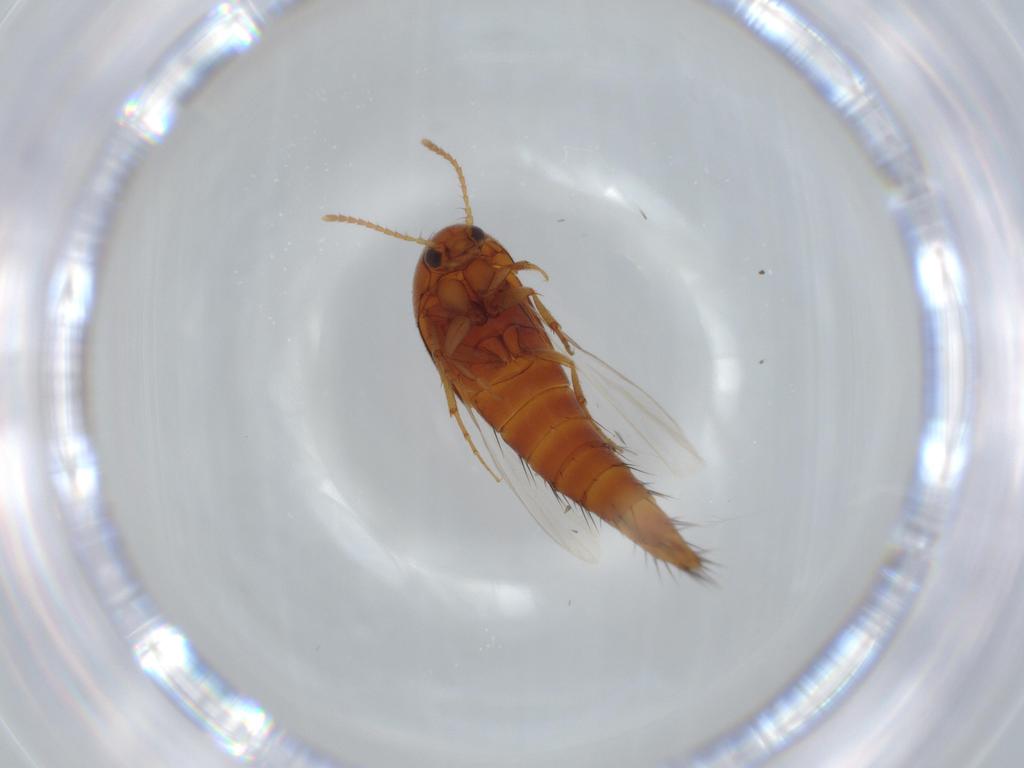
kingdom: Animalia
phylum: Arthropoda
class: Insecta
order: Coleoptera
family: Staphylinidae
